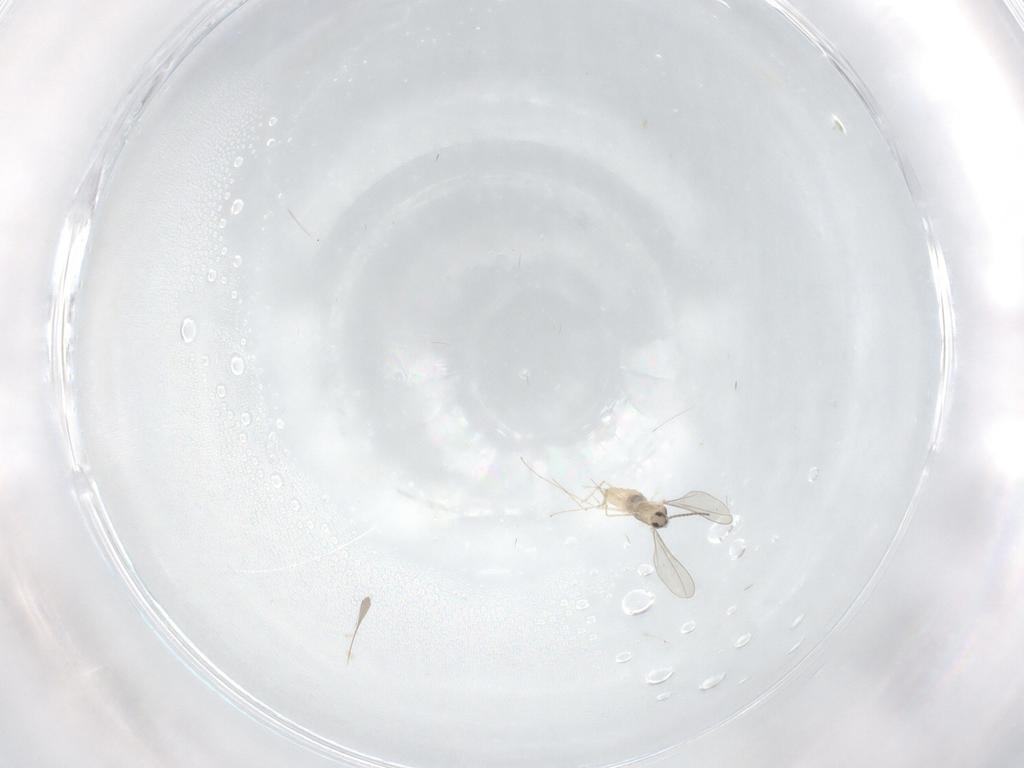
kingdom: Animalia
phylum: Arthropoda
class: Insecta
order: Diptera
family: Cecidomyiidae
